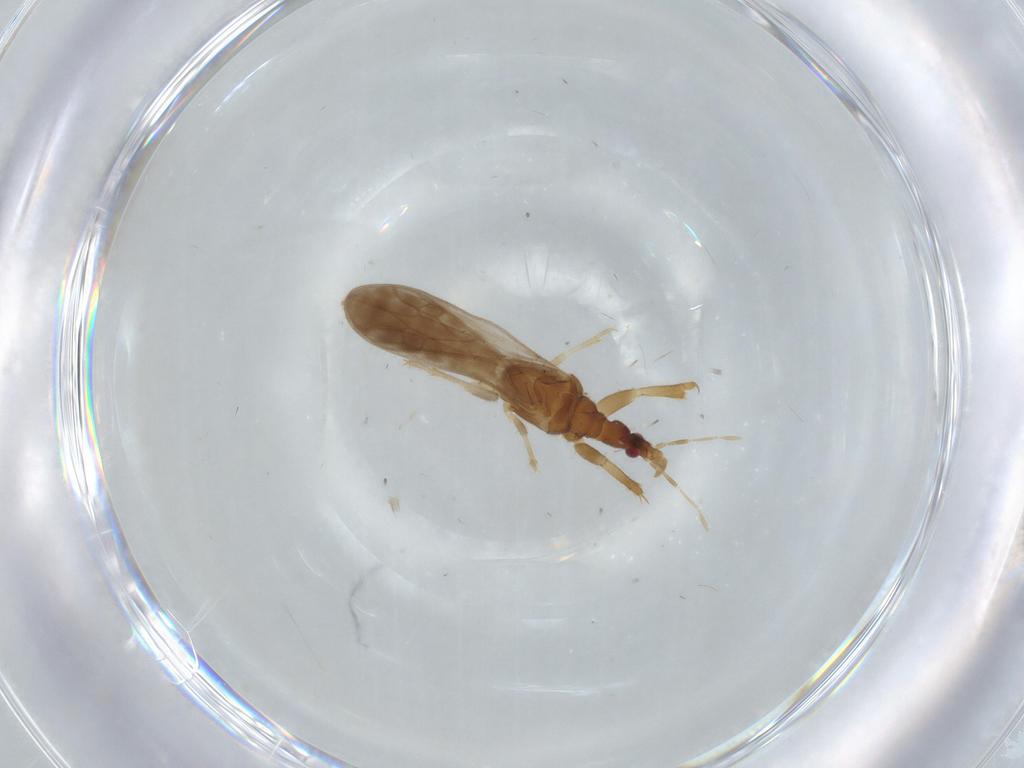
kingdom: Animalia
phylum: Arthropoda
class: Insecta
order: Hemiptera
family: Enicocephalidae
